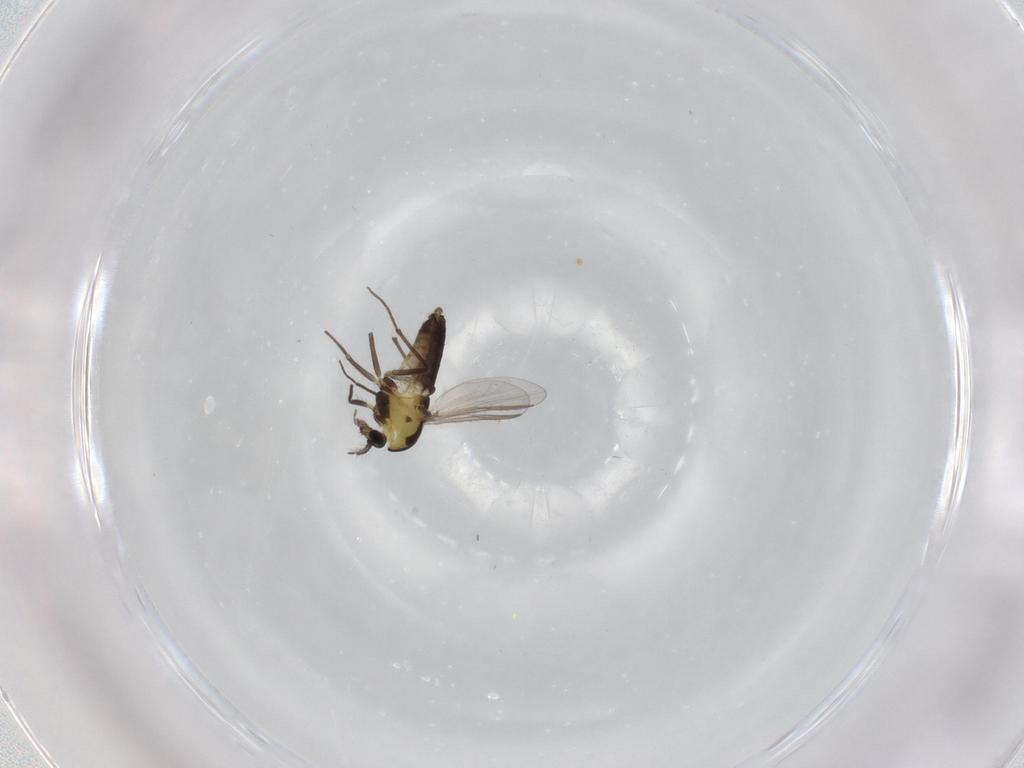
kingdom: Animalia
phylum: Arthropoda
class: Insecta
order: Diptera
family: Chironomidae
